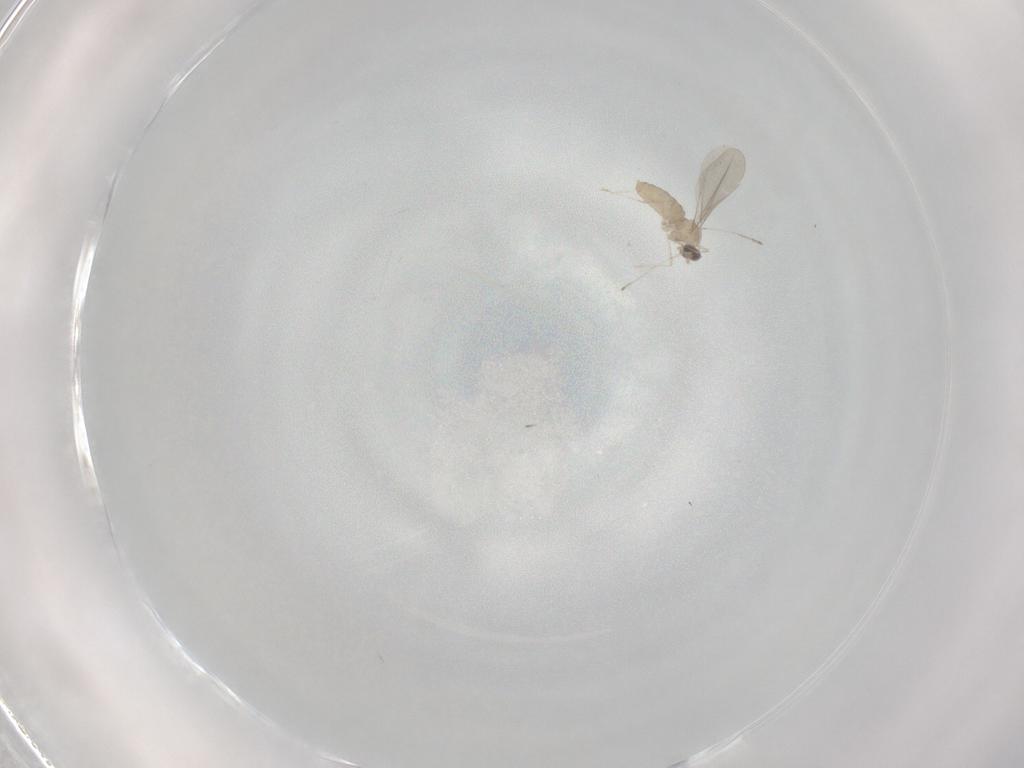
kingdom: Animalia
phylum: Arthropoda
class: Insecta
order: Diptera
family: Cecidomyiidae
